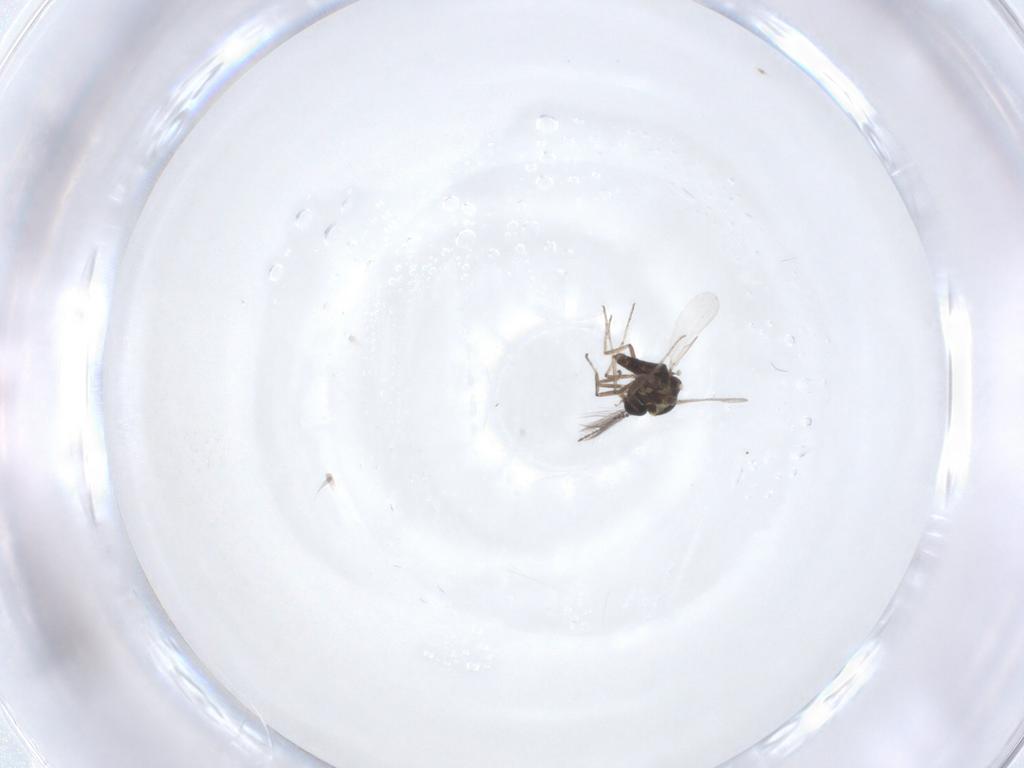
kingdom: Animalia
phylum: Arthropoda
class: Insecta
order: Diptera
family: Ceratopogonidae
